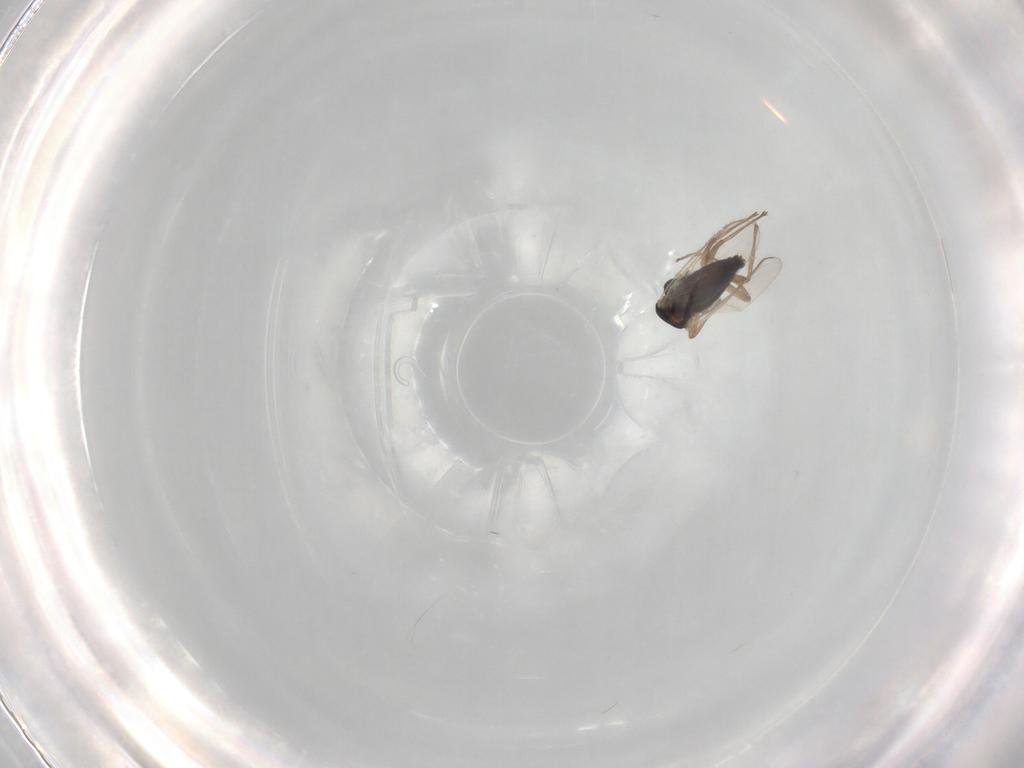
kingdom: Animalia
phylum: Arthropoda
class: Insecta
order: Diptera
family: Chironomidae
